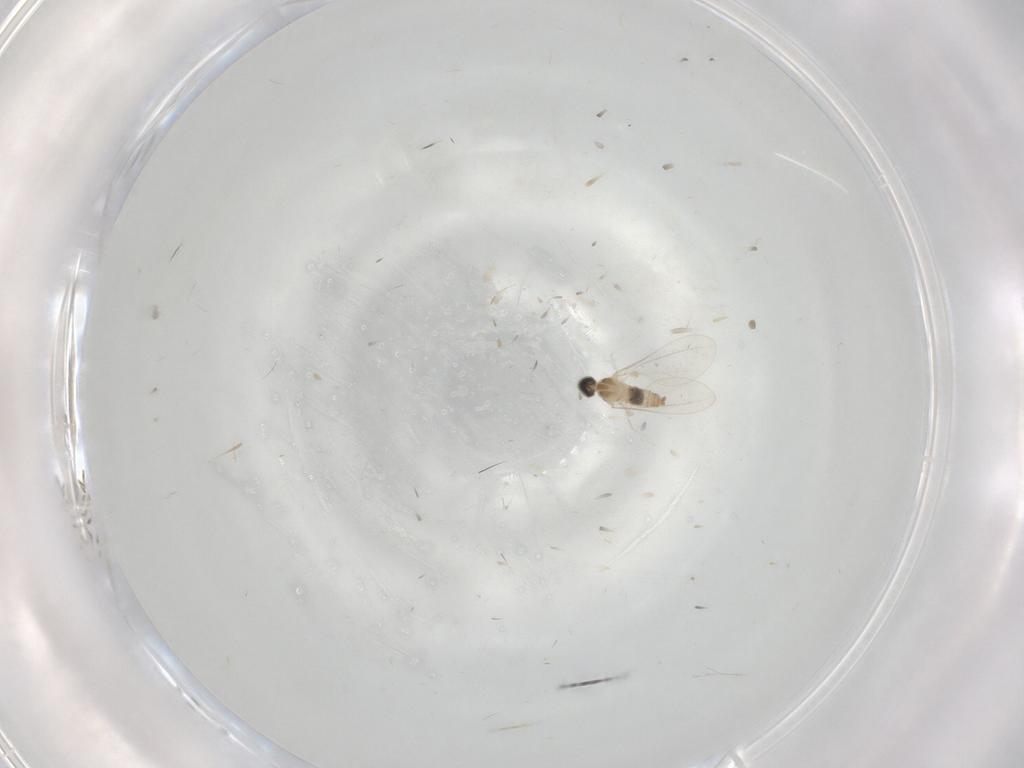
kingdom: Animalia
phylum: Arthropoda
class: Insecta
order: Diptera
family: Cecidomyiidae
